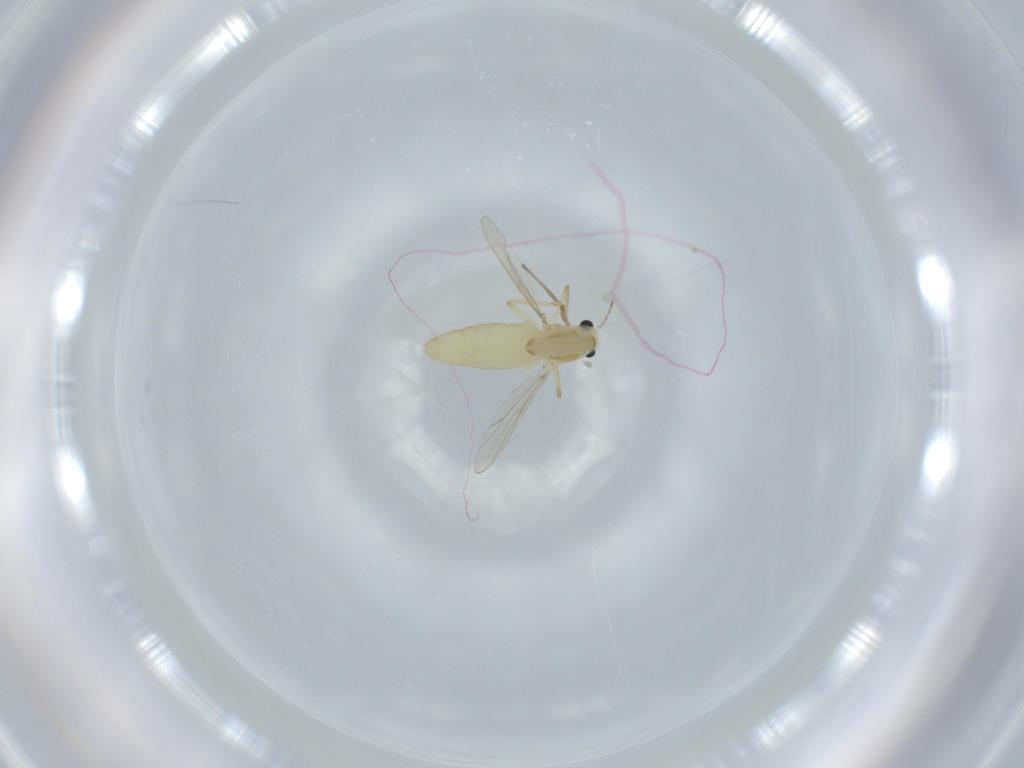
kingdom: Animalia
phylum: Arthropoda
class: Insecta
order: Diptera
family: Chironomidae
